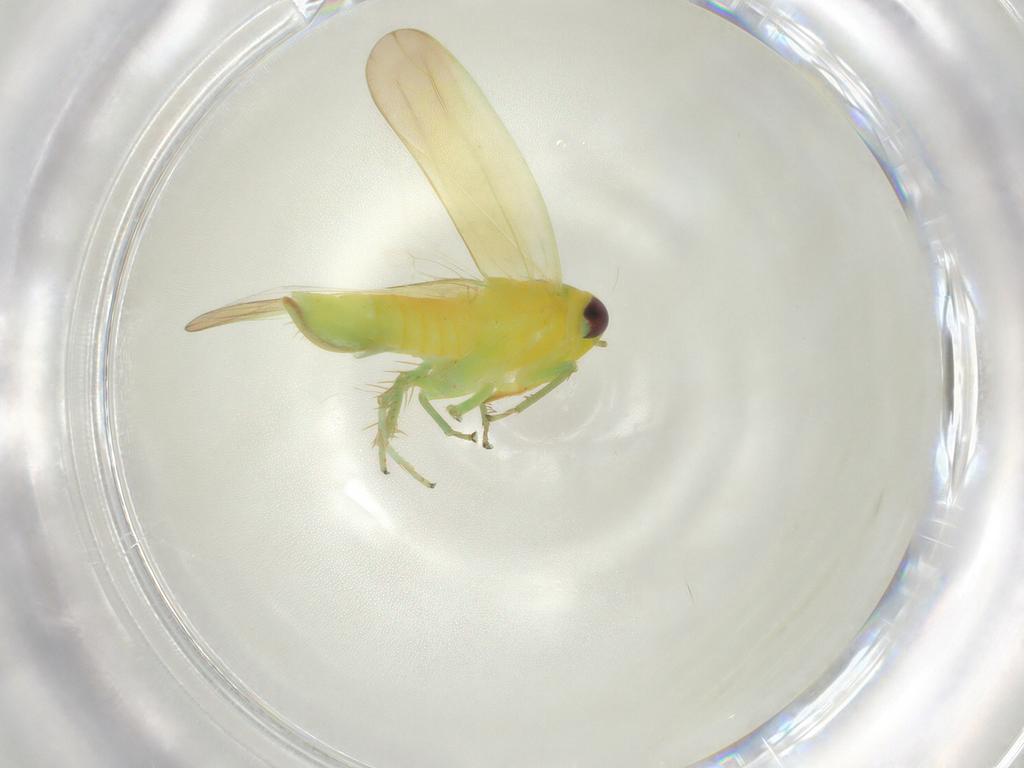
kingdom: Animalia
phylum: Arthropoda
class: Insecta
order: Hemiptera
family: Cicadellidae
